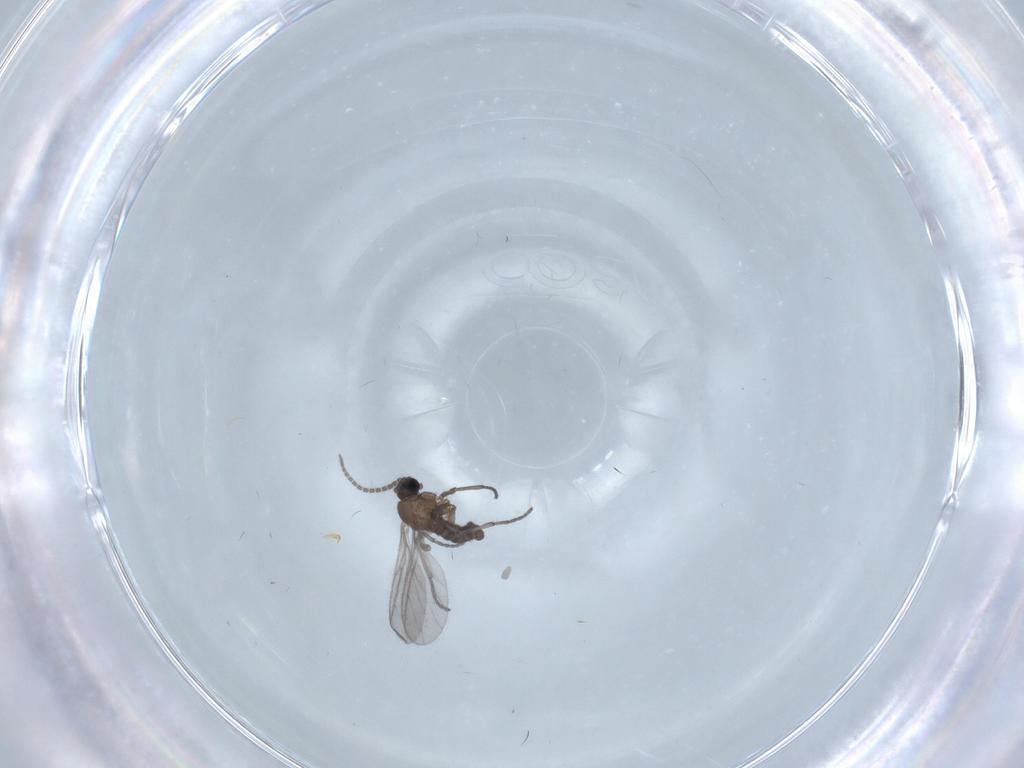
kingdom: Animalia
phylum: Arthropoda
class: Insecta
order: Diptera
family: Sciaridae
